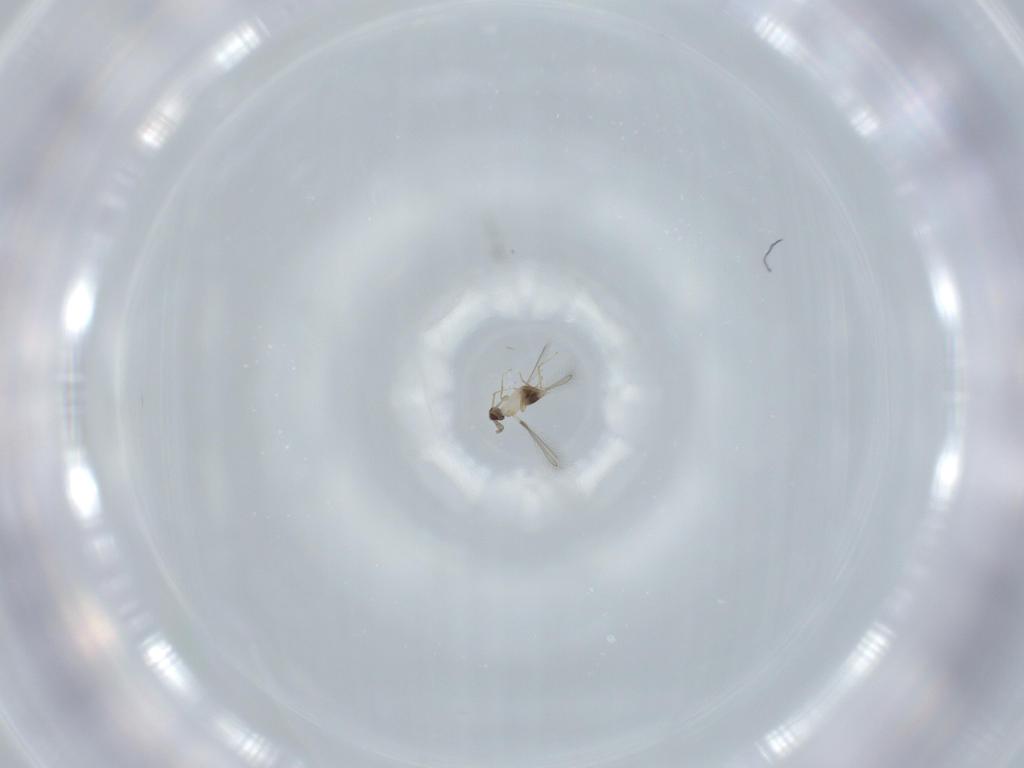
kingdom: Animalia
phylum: Arthropoda
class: Insecta
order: Hymenoptera
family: Mymaridae
